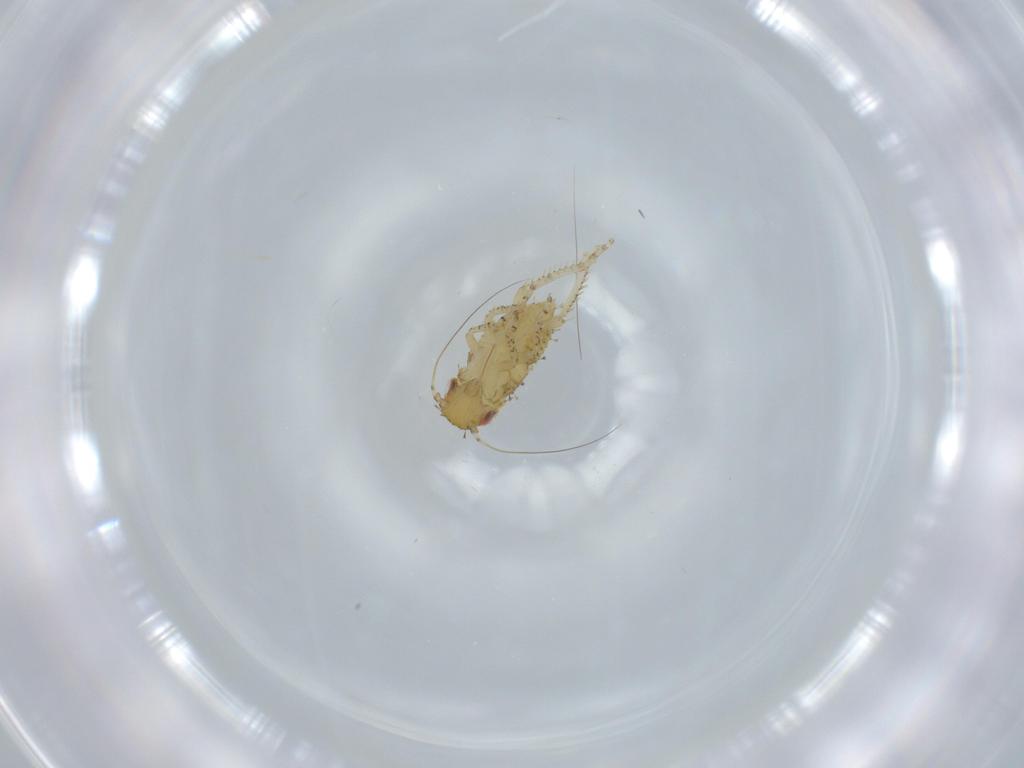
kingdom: Animalia
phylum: Arthropoda
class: Insecta
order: Hemiptera
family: Cicadellidae
